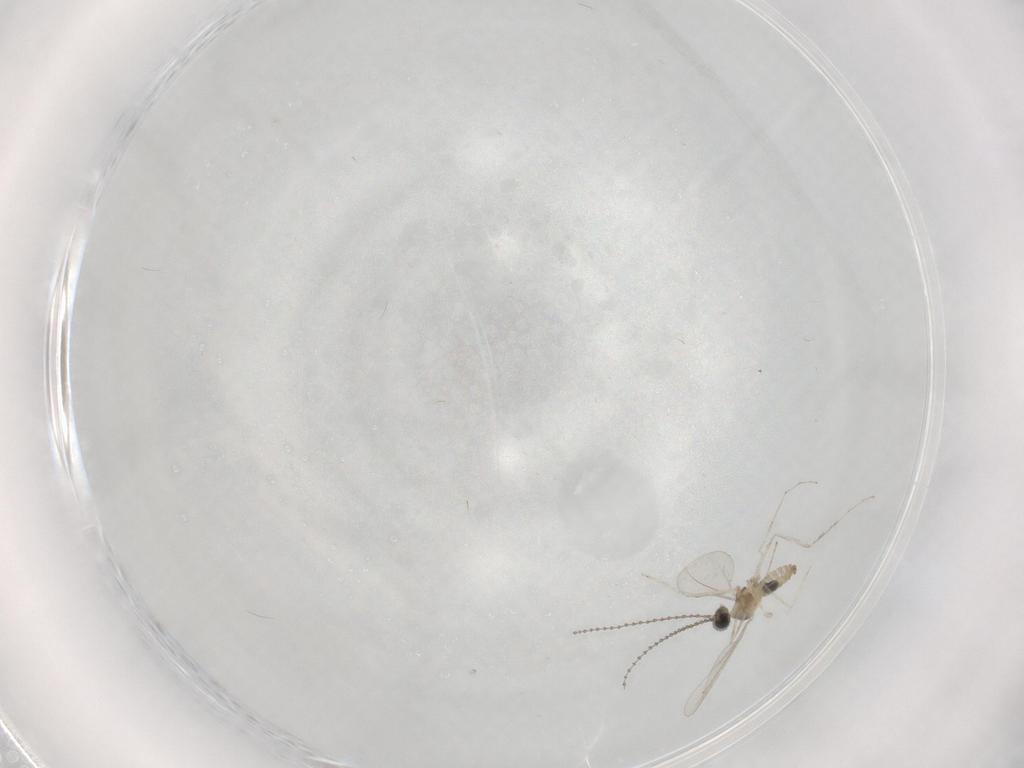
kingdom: Animalia
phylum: Arthropoda
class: Insecta
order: Diptera
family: Cecidomyiidae
